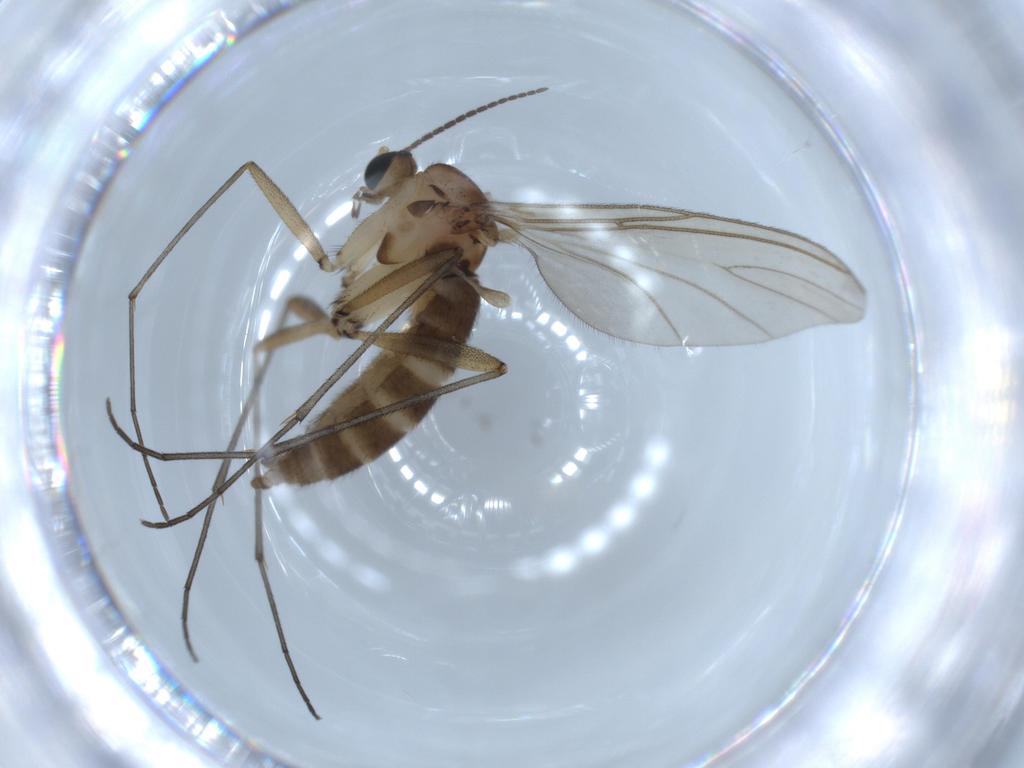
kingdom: Animalia
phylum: Arthropoda
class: Insecta
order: Diptera
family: Sciaridae
